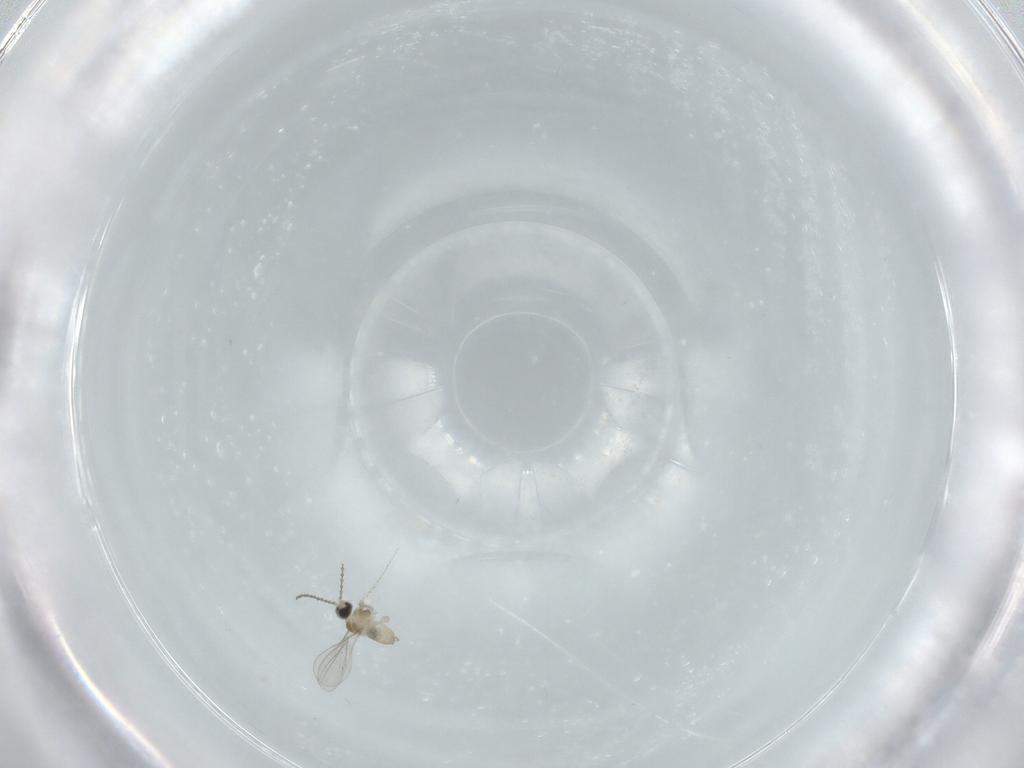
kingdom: Animalia
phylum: Arthropoda
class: Insecta
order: Diptera
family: Cecidomyiidae
